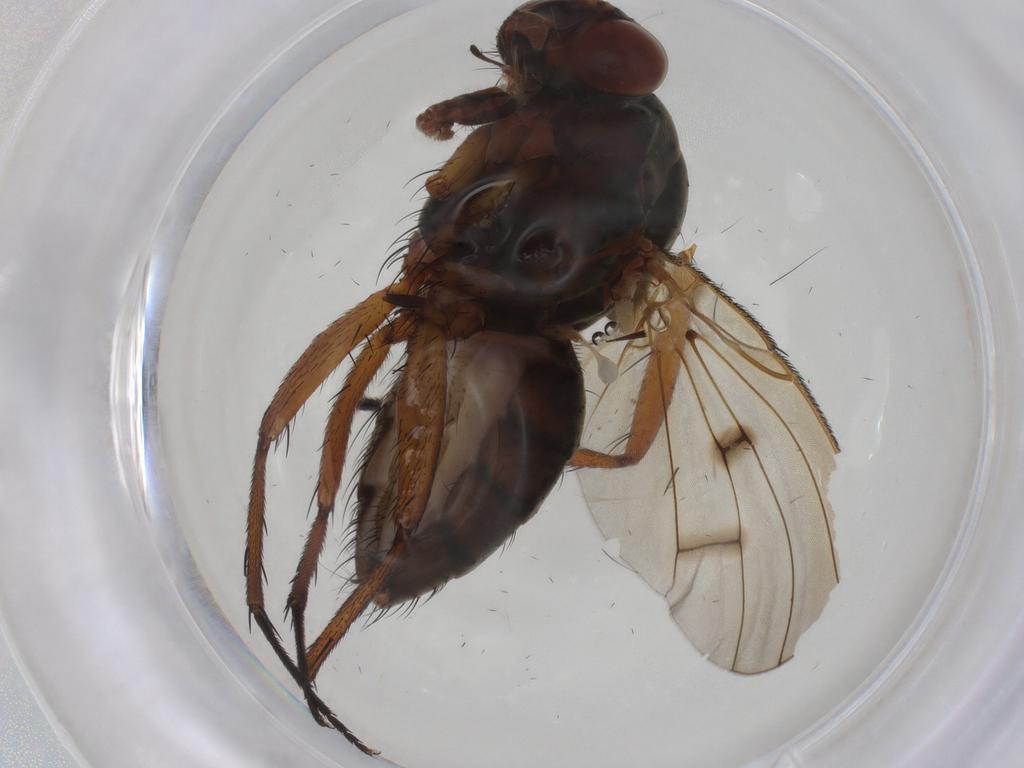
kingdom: Animalia
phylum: Arthropoda
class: Insecta
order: Diptera
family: Anthomyiidae
